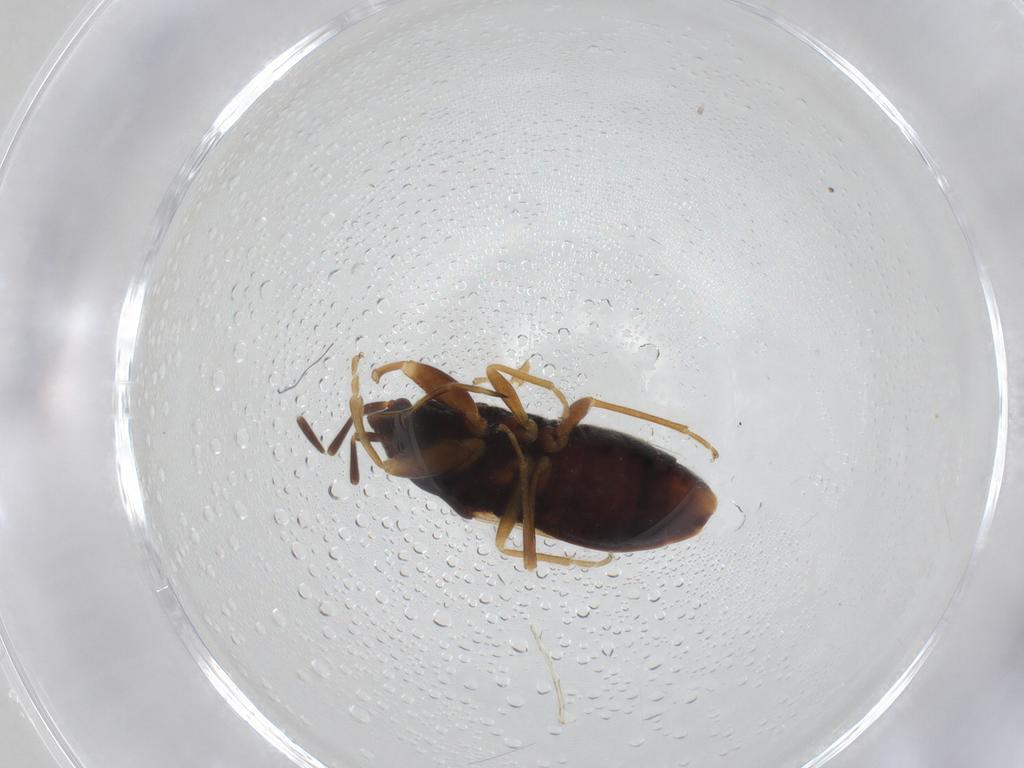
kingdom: Animalia
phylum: Arthropoda
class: Insecta
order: Hemiptera
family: Rhyparochromidae
